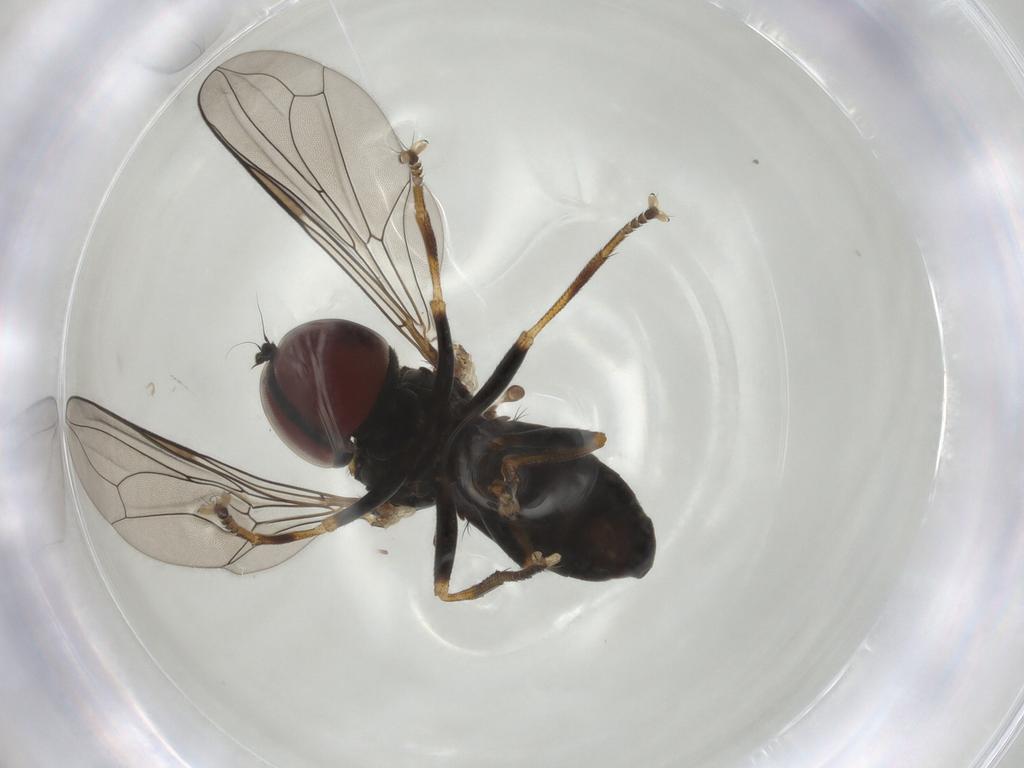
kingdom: Animalia
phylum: Arthropoda
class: Insecta
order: Diptera
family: Pipunculidae
